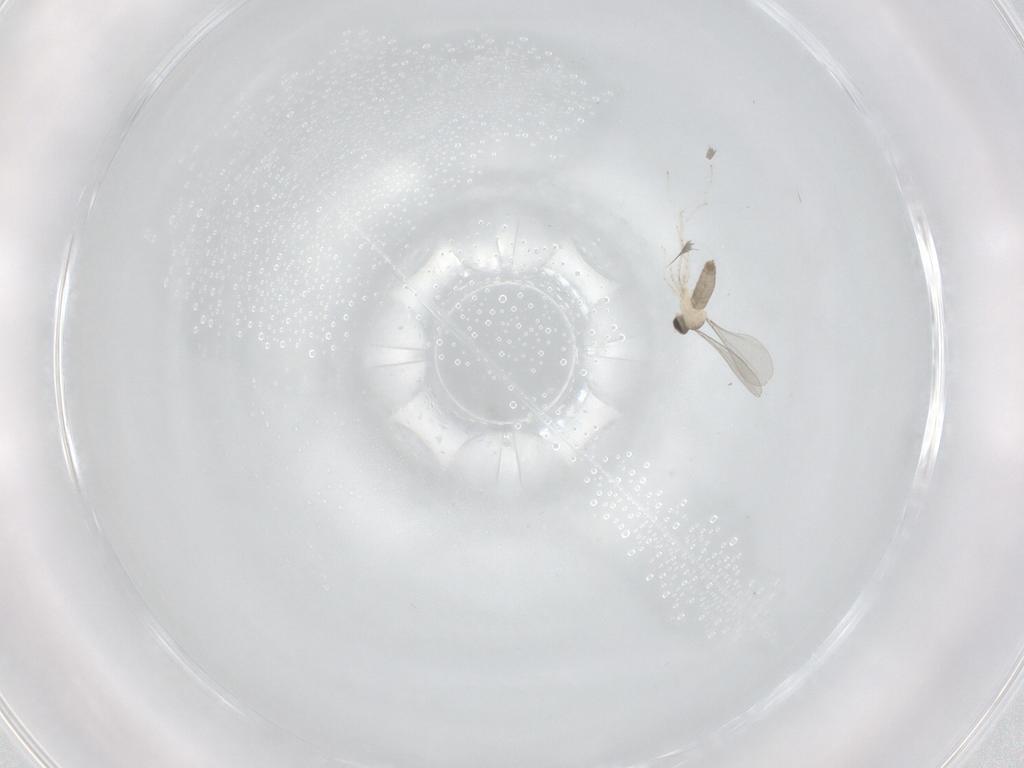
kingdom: Animalia
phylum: Arthropoda
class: Insecta
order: Diptera
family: Cecidomyiidae
